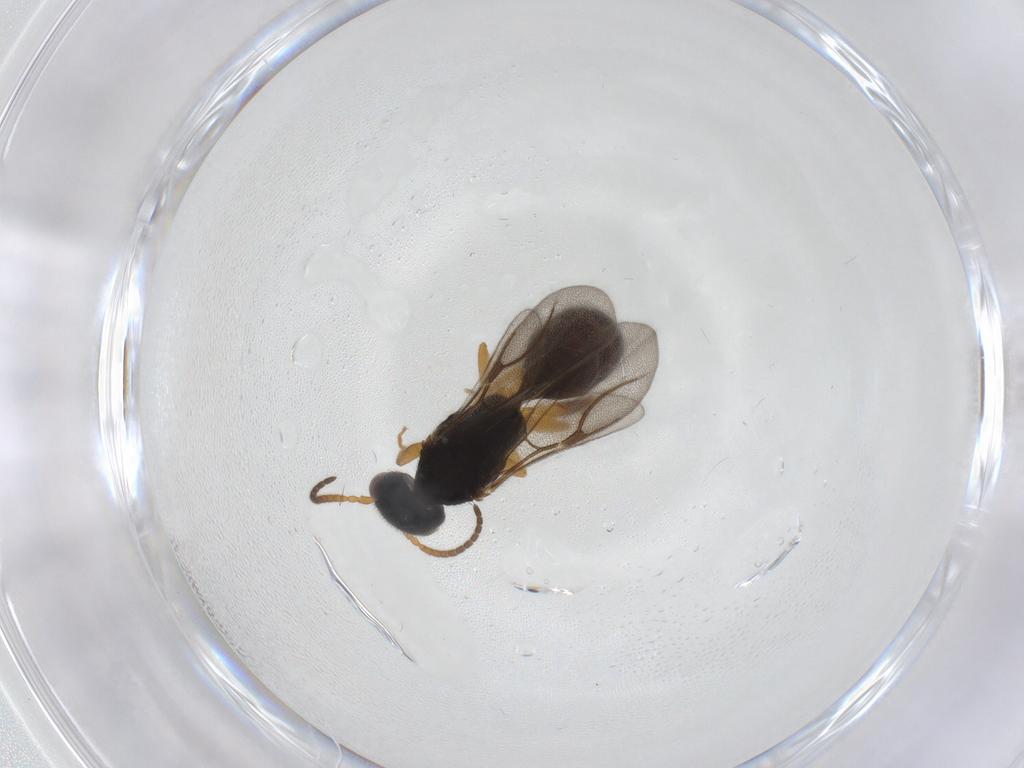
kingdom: Animalia
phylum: Arthropoda
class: Insecta
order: Hymenoptera
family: Bethylidae
